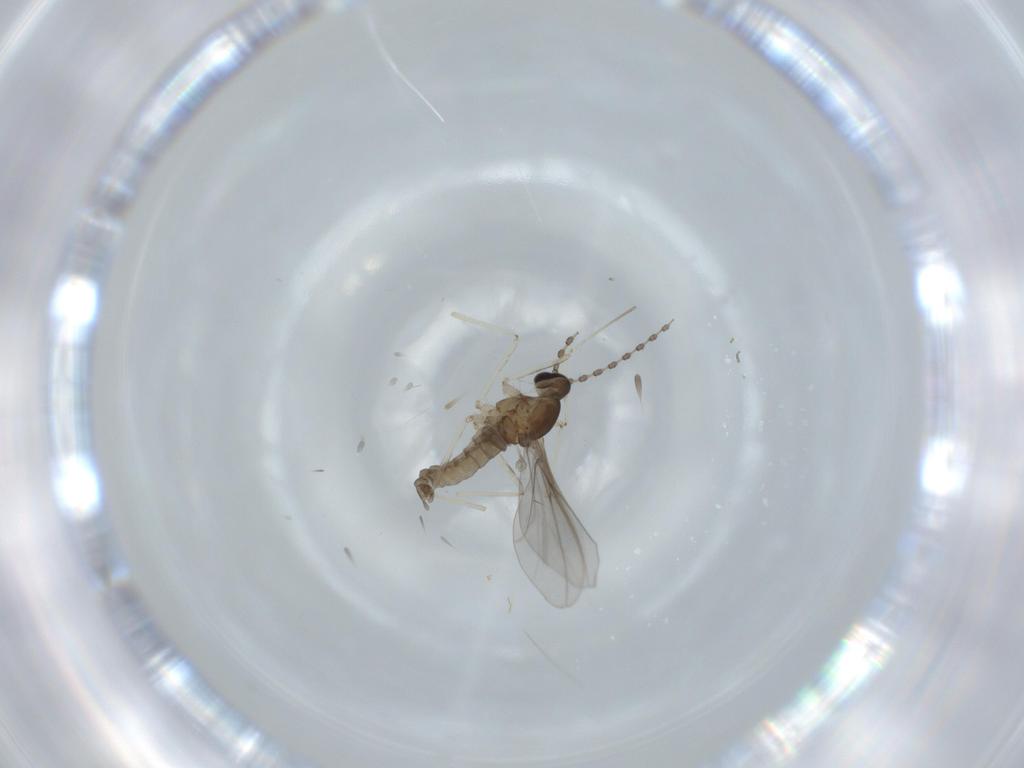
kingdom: Animalia
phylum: Arthropoda
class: Insecta
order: Diptera
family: Cecidomyiidae
